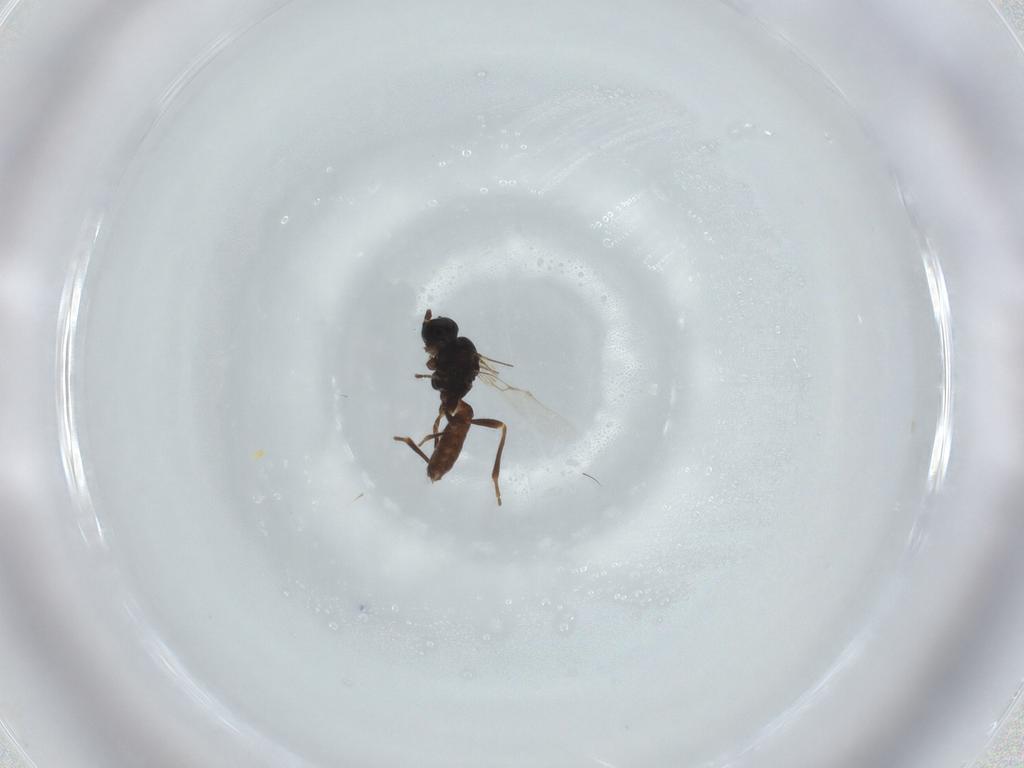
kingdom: Animalia
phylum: Arthropoda
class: Insecta
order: Hymenoptera
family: Braconidae
